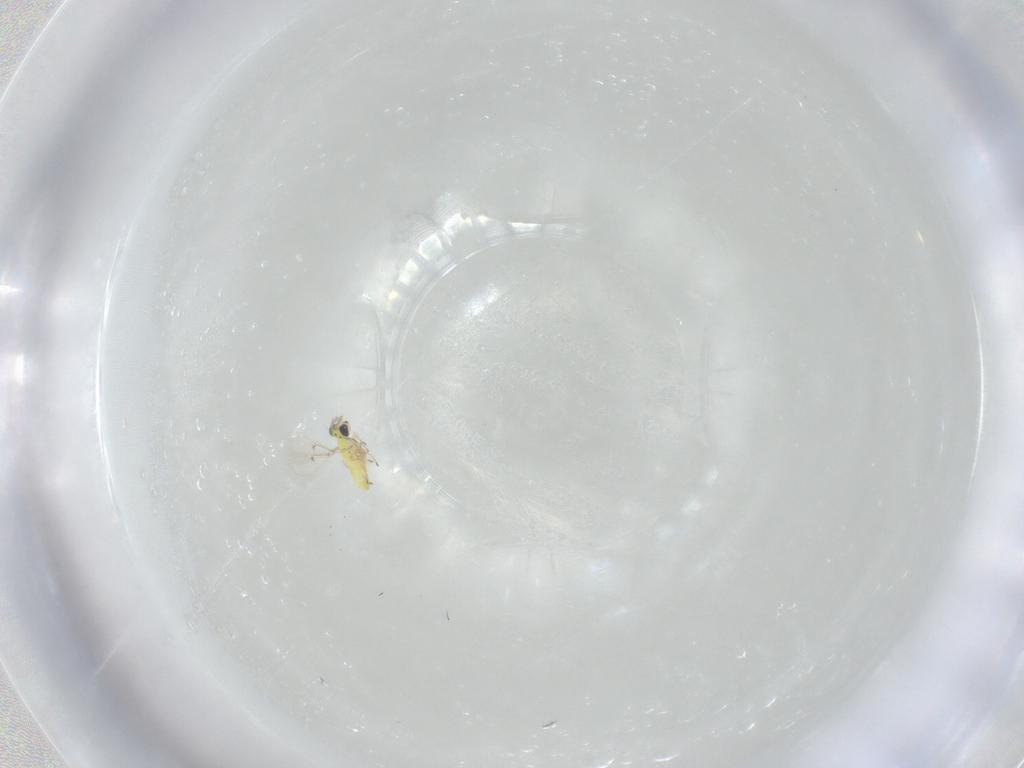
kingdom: Animalia
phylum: Arthropoda
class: Insecta
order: Hymenoptera
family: Trichogrammatidae
